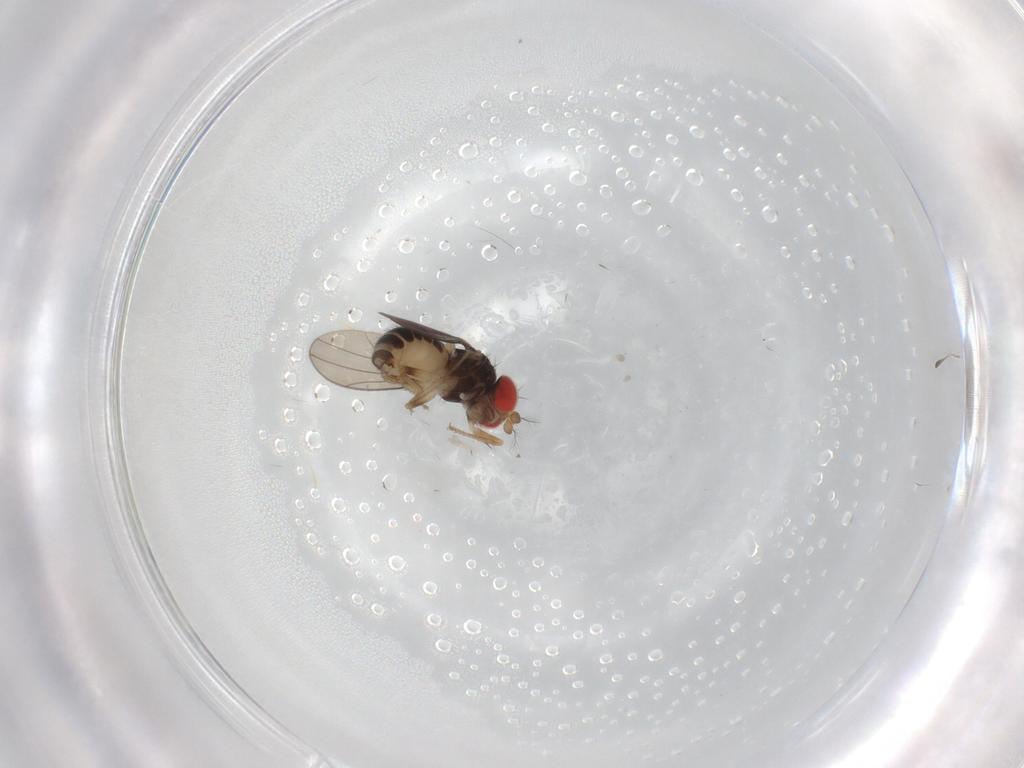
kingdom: Animalia
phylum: Arthropoda
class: Insecta
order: Diptera
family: Drosophilidae
